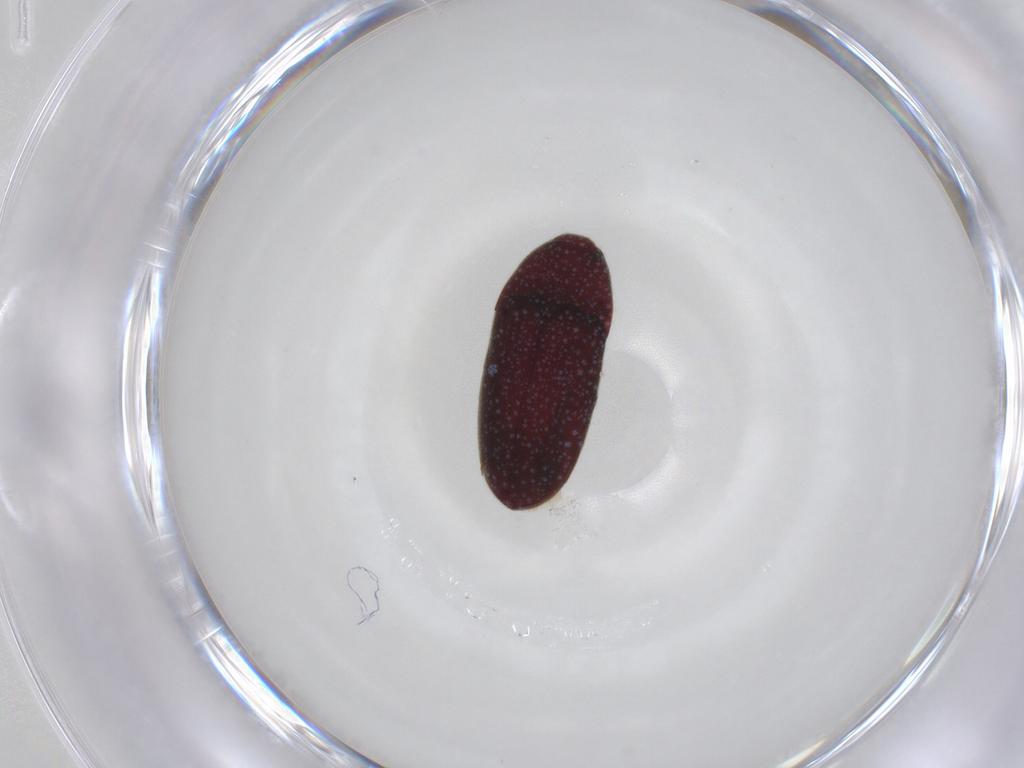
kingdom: Animalia
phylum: Arthropoda
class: Insecta
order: Coleoptera
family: Throscidae
